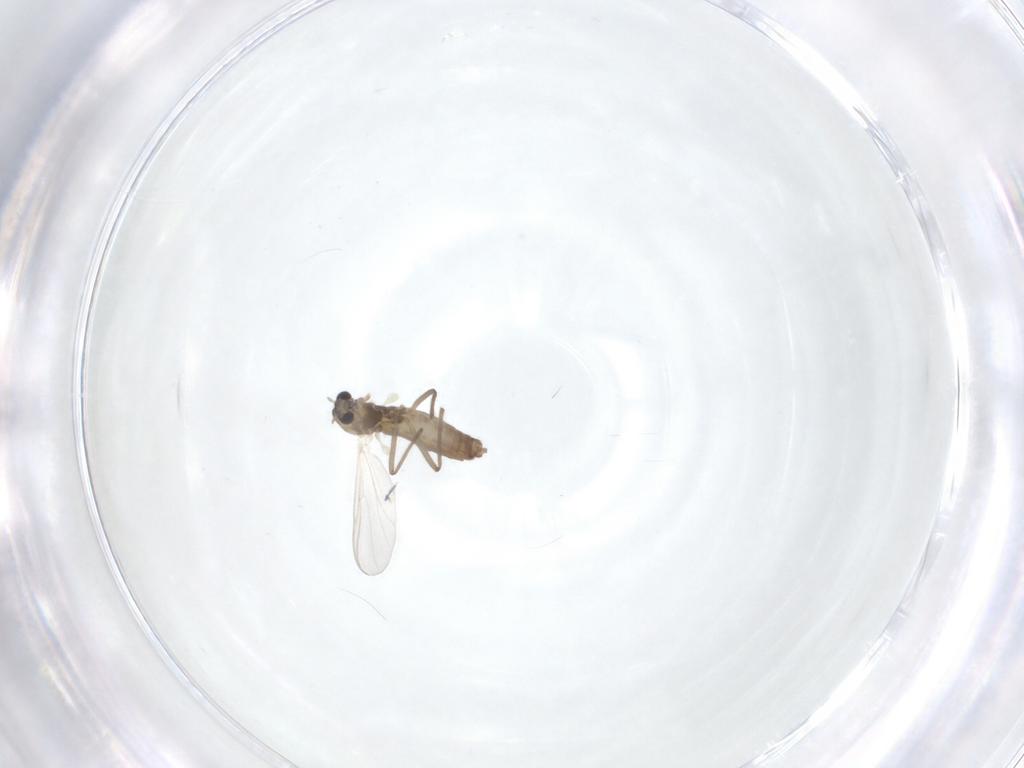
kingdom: Animalia
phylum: Arthropoda
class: Insecta
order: Diptera
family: Chironomidae
